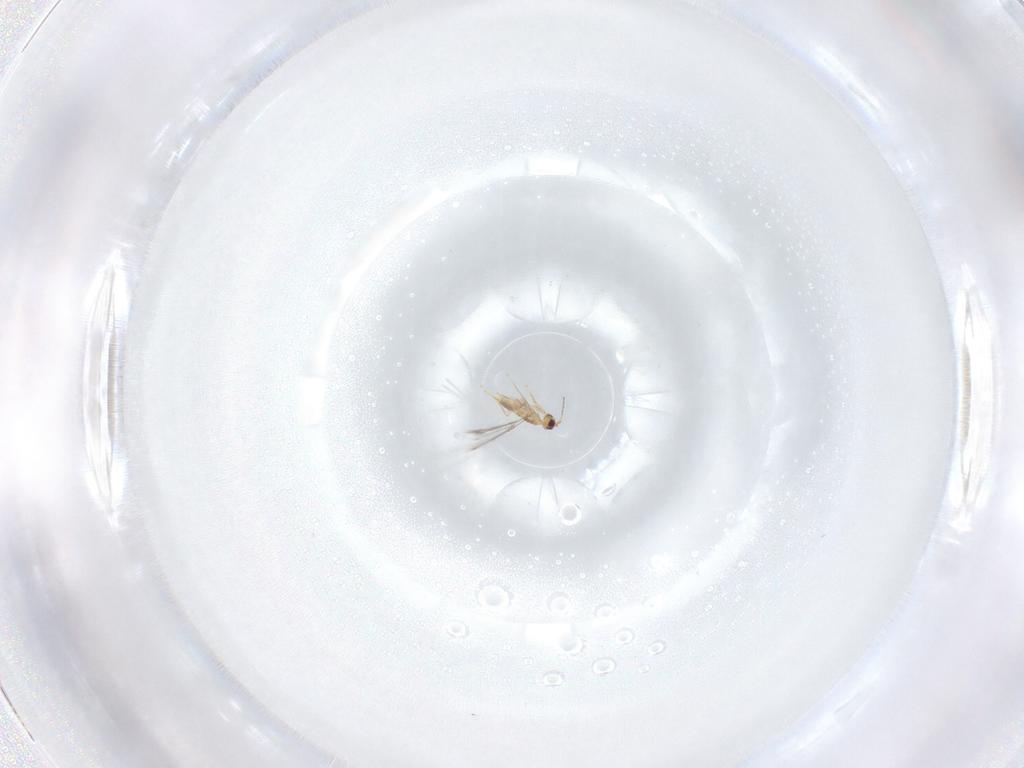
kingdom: Animalia
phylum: Arthropoda
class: Insecta
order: Hymenoptera
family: Mymaridae
